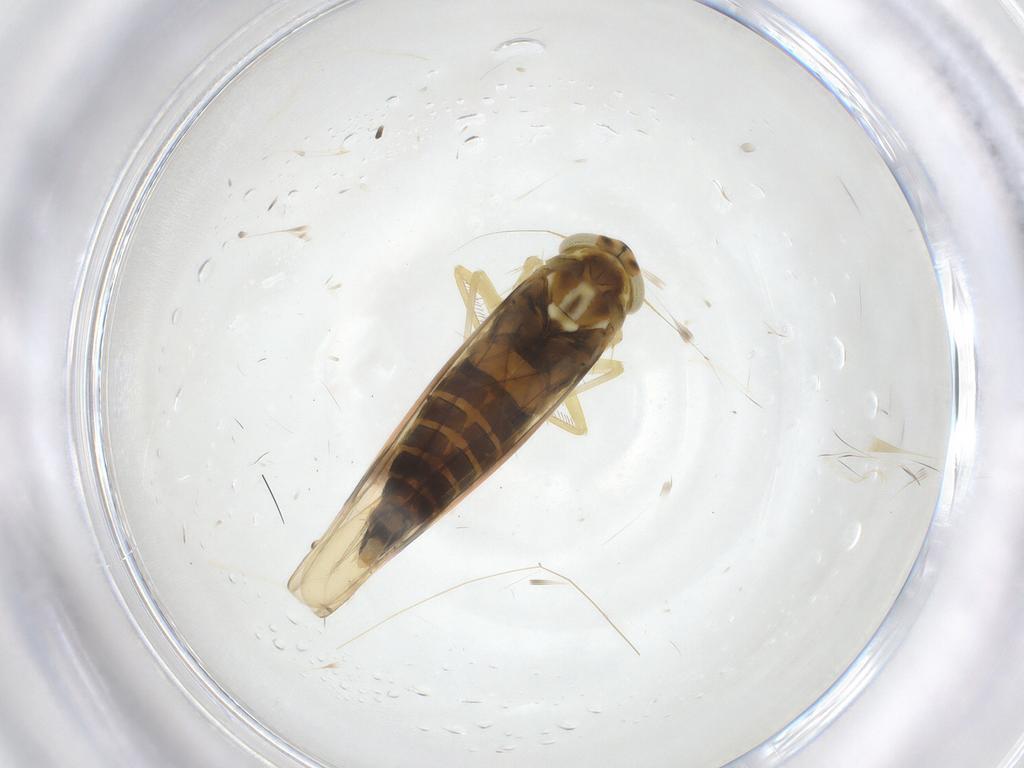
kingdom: Animalia
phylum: Arthropoda
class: Insecta
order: Hemiptera
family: Cicadellidae
